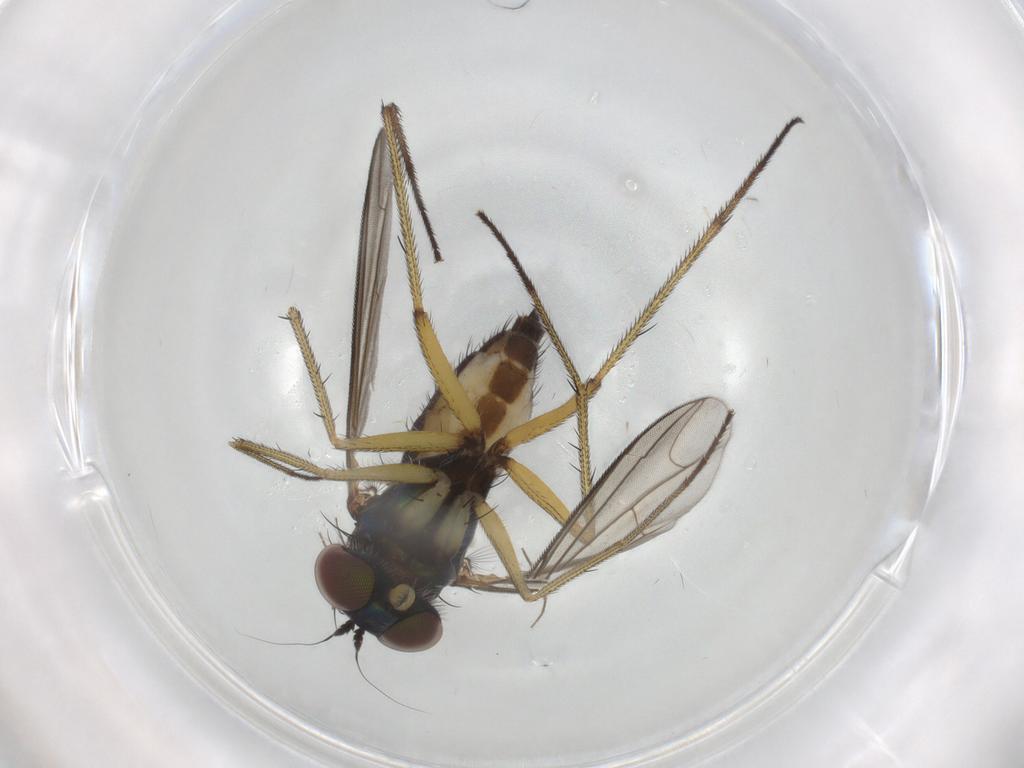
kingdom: Animalia
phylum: Arthropoda
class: Insecta
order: Diptera
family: Dolichopodidae
